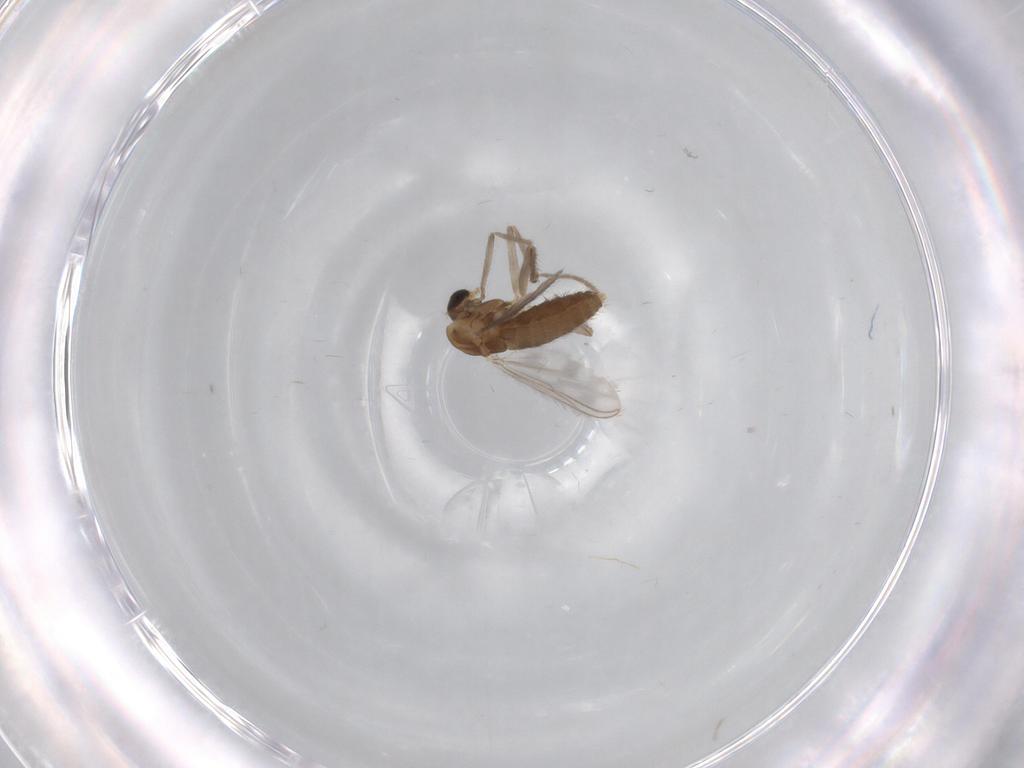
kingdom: Animalia
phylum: Arthropoda
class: Insecta
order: Diptera
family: Chironomidae
